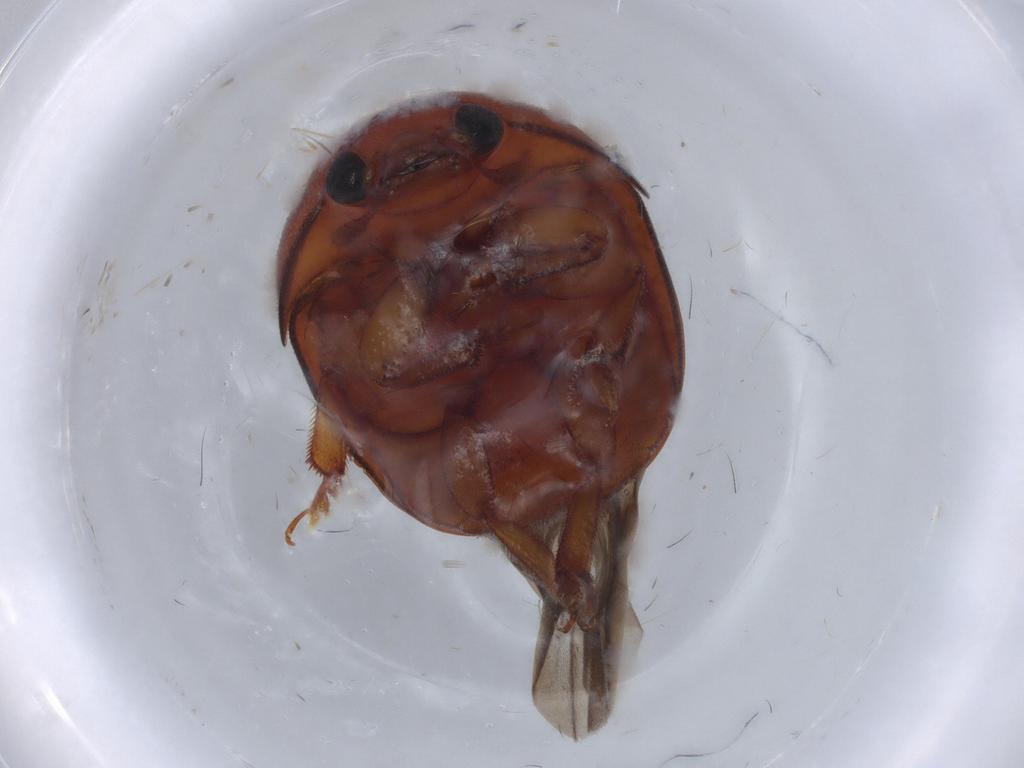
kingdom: Animalia
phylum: Arthropoda
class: Insecta
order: Coleoptera
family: Nitidulidae
